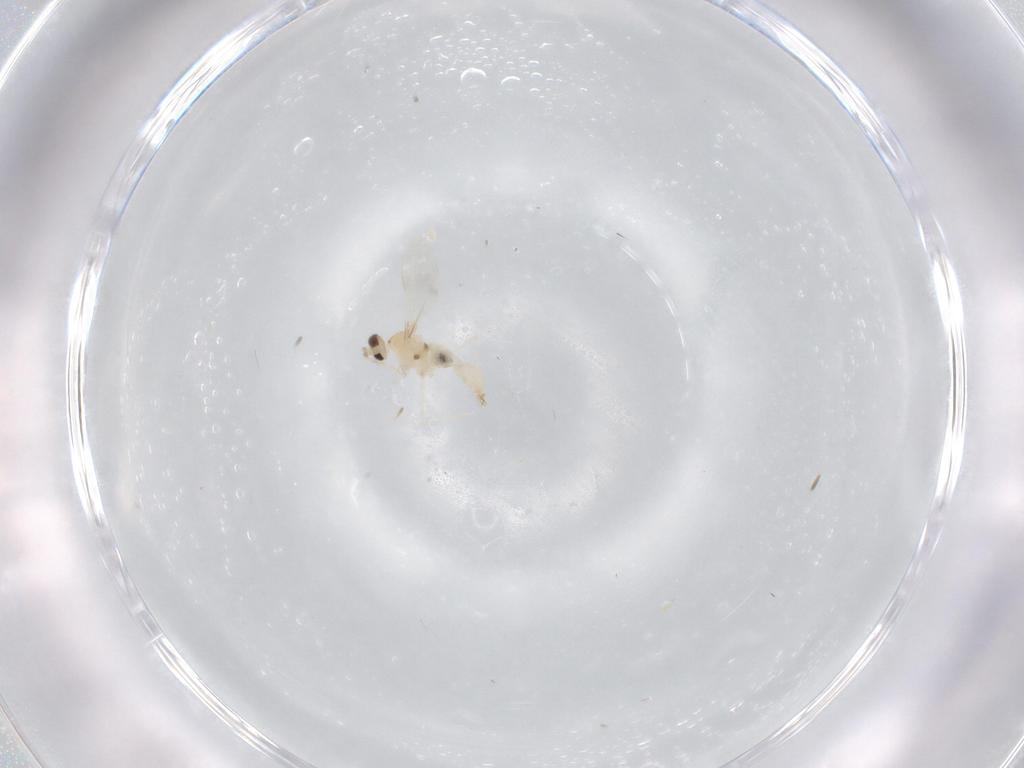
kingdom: Animalia
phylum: Arthropoda
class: Insecta
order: Diptera
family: Cecidomyiidae
